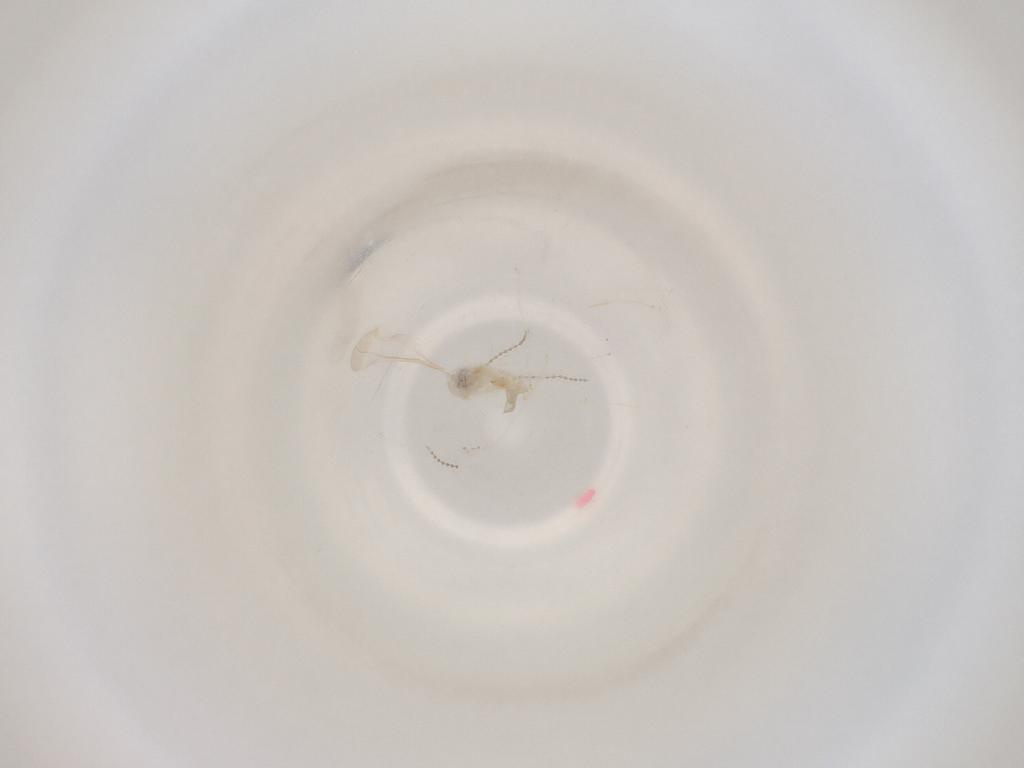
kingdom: Animalia
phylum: Arthropoda
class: Insecta
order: Diptera
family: Cecidomyiidae
